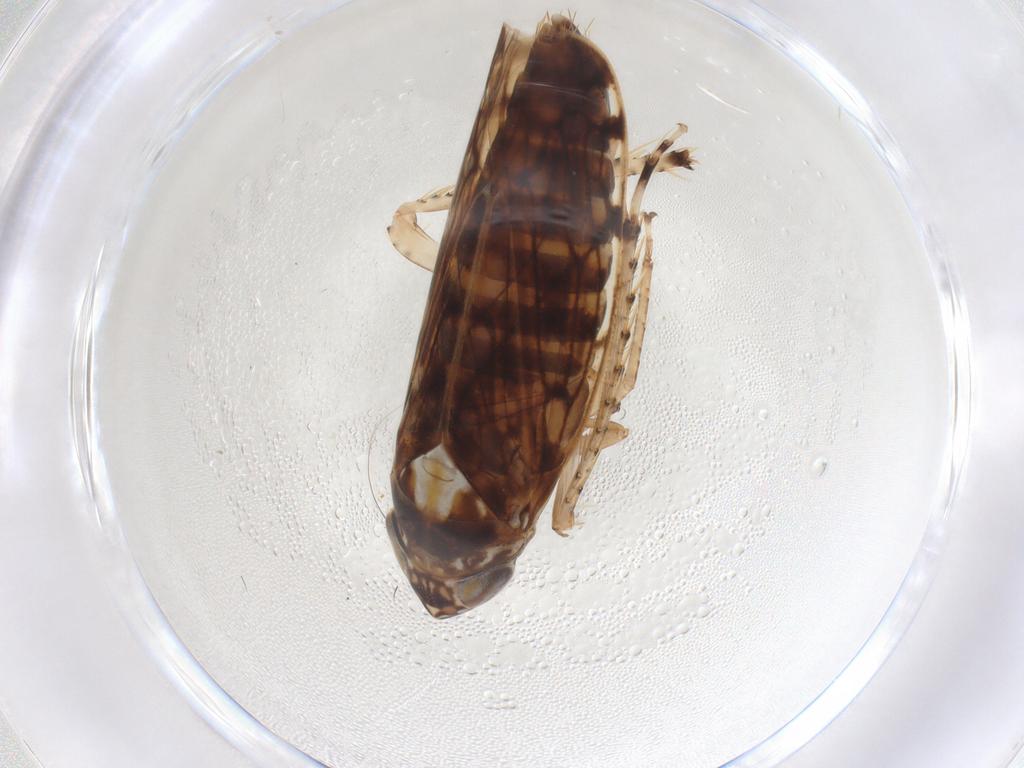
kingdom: Animalia
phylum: Arthropoda
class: Insecta
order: Hemiptera
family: Cicadellidae
